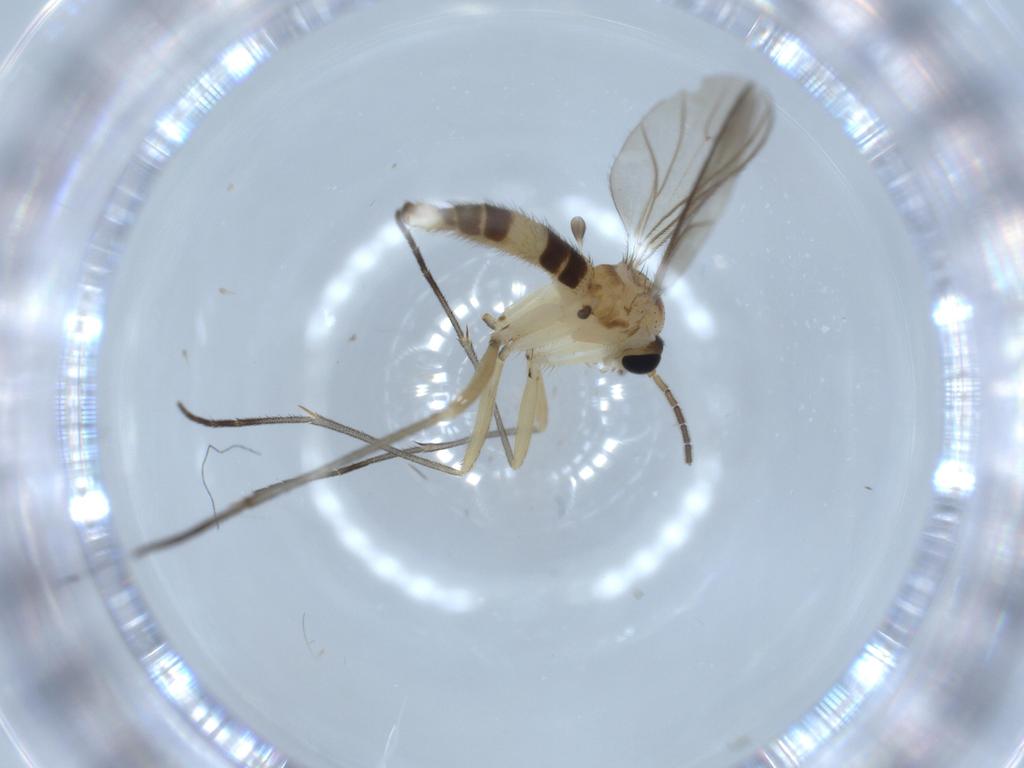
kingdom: Animalia
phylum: Arthropoda
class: Insecta
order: Diptera
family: Sciaridae
